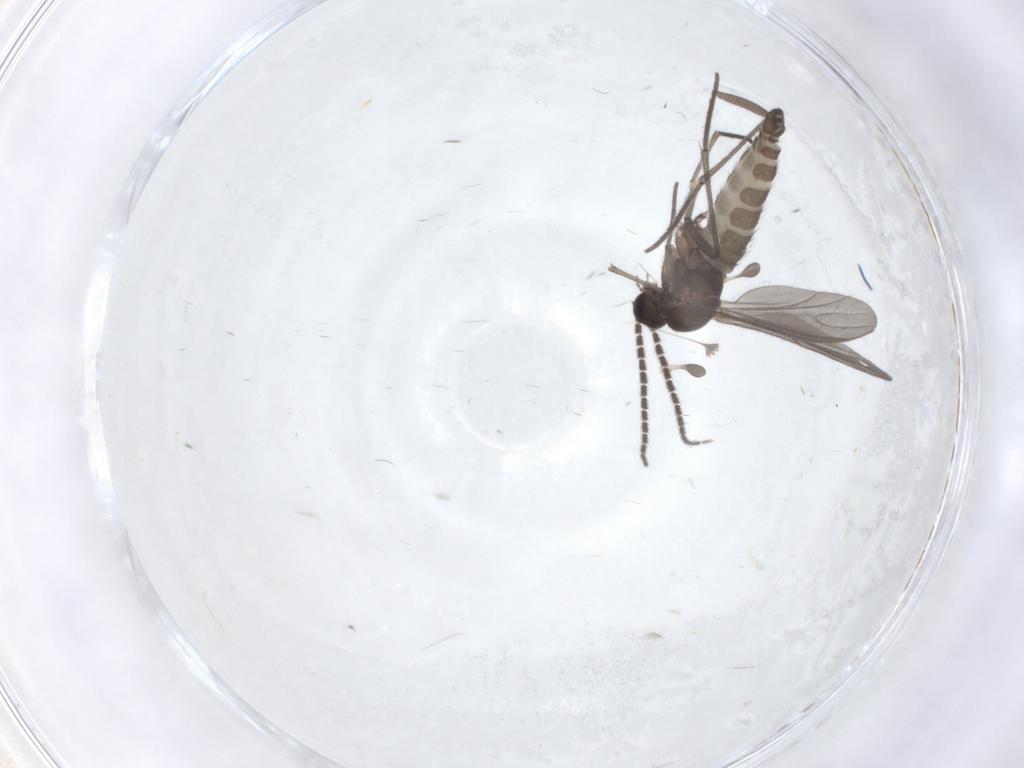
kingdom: Animalia
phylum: Arthropoda
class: Insecta
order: Diptera
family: Sciaridae
